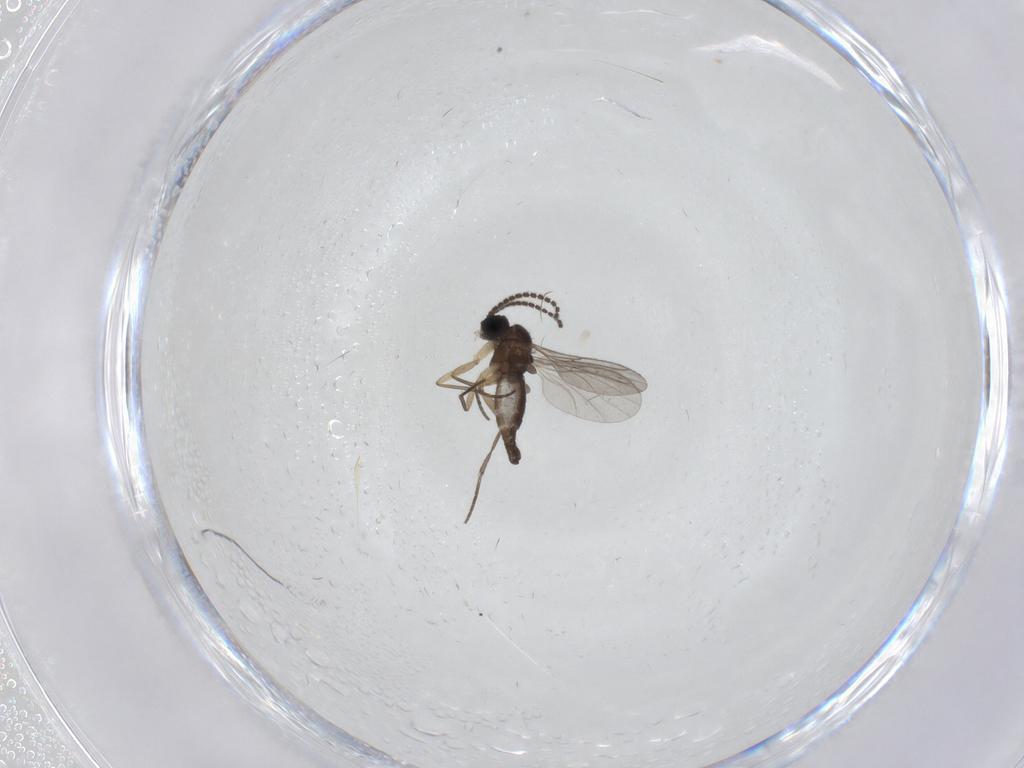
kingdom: Animalia
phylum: Arthropoda
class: Insecta
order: Diptera
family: Sciaridae
